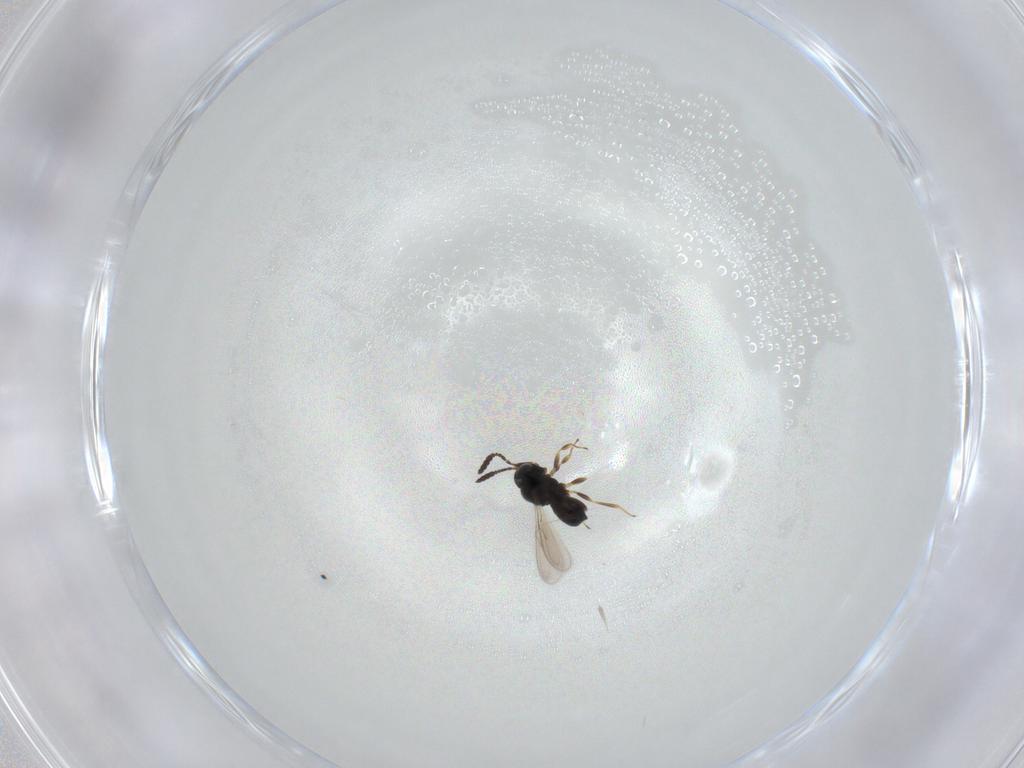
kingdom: Animalia
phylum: Arthropoda
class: Insecta
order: Hymenoptera
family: Scelionidae
